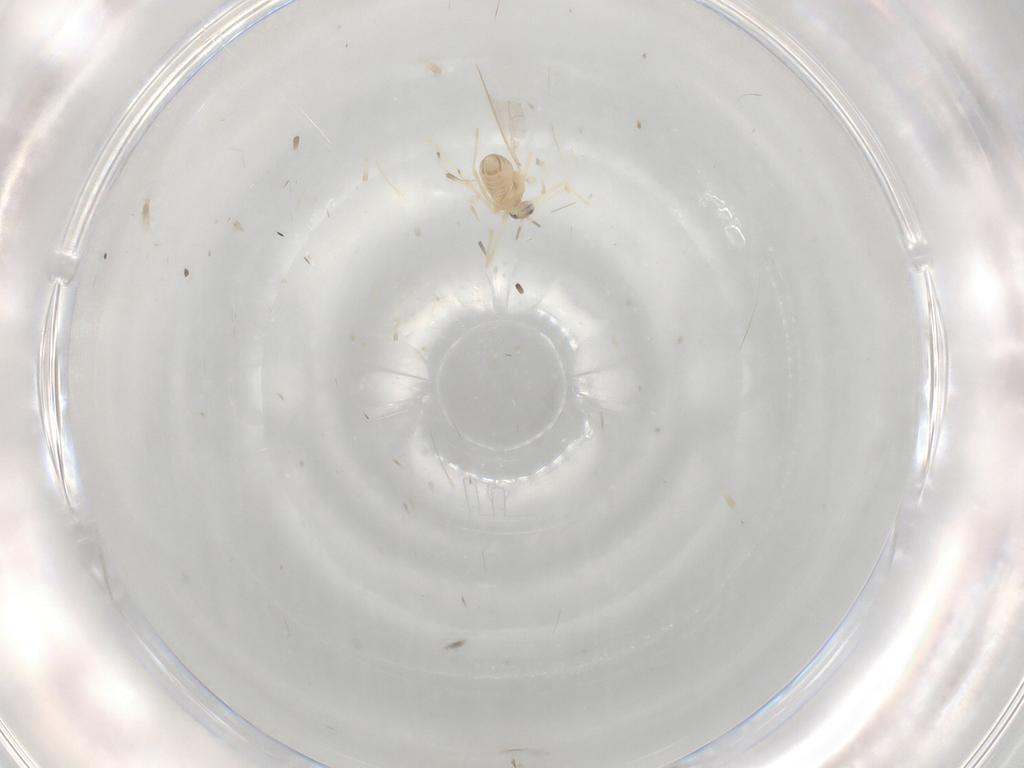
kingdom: Animalia
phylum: Arthropoda
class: Insecta
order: Diptera
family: Cecidomyiidae
